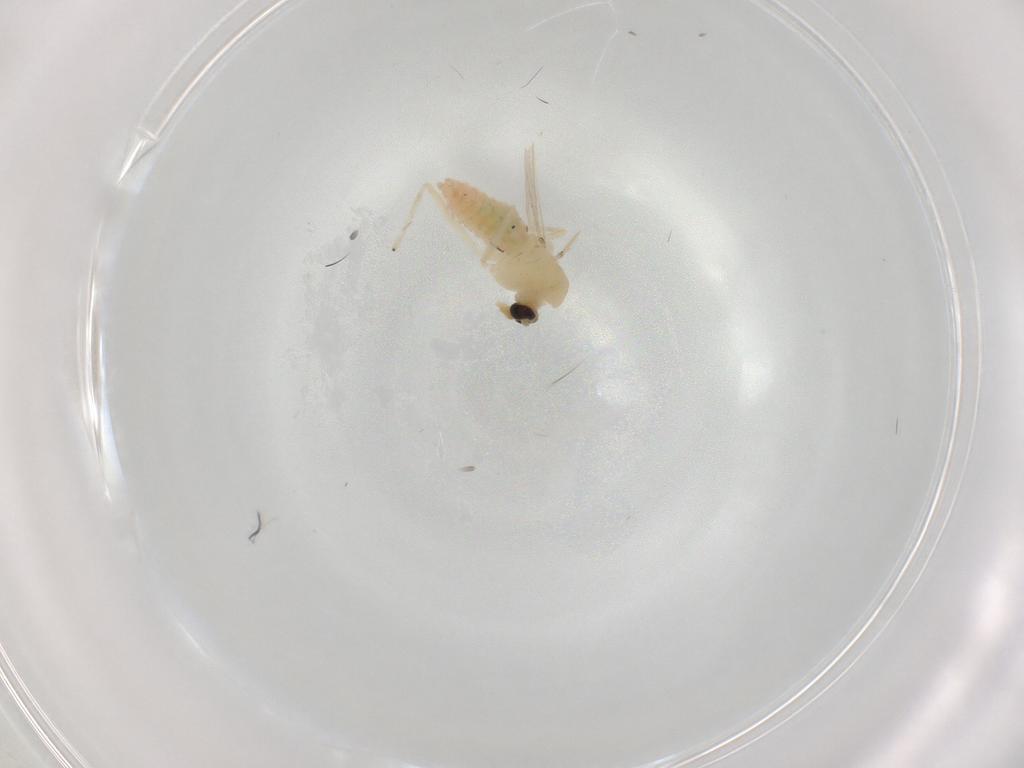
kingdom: Animalia
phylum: Arthropoda
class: Insecta
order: Diptera
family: Chironomidae
